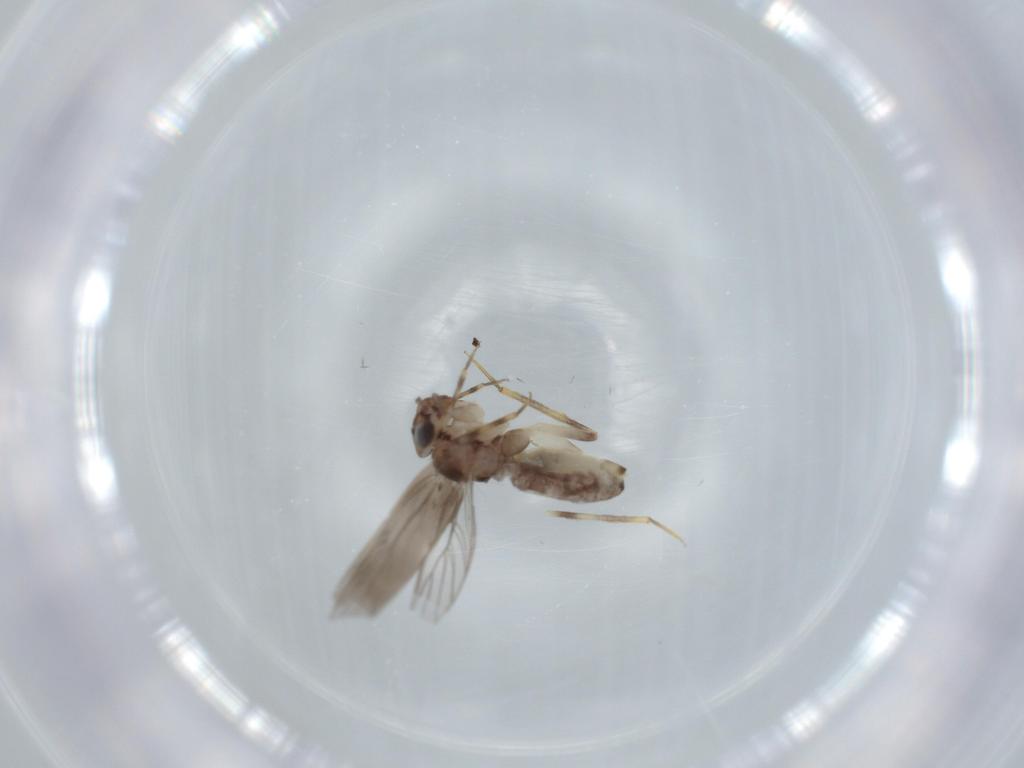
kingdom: Animalia
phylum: Arthropoda
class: Insecta
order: Psocodea
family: Lepidopsocidae
